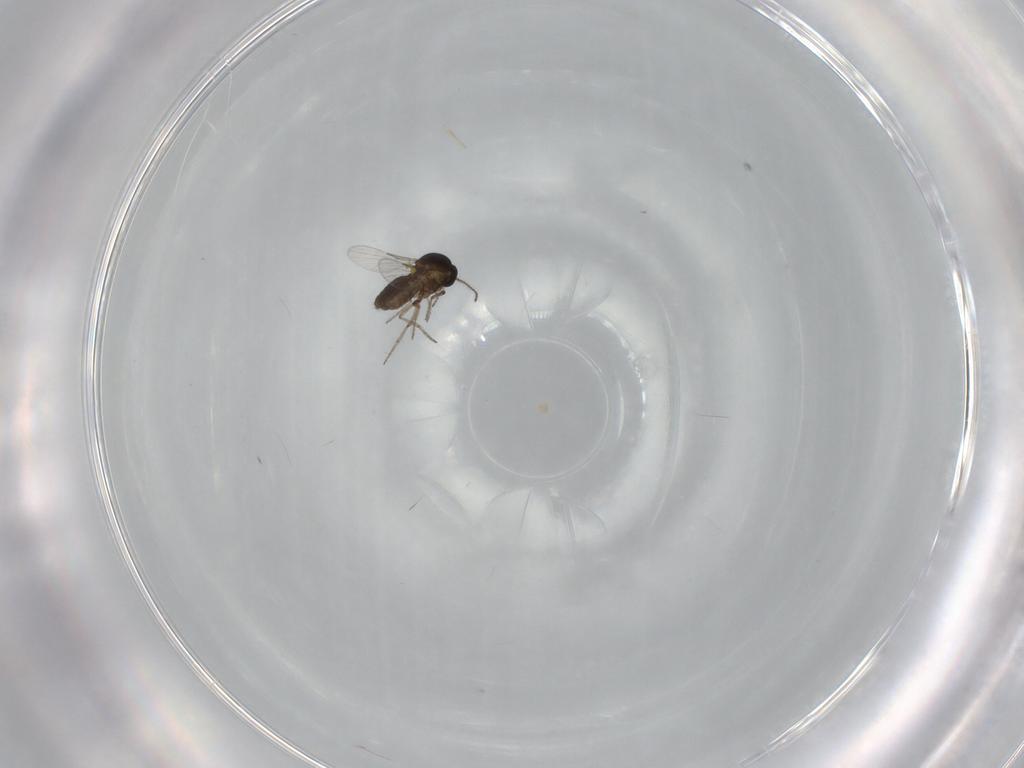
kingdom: Animalia
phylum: Arthropoda
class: Insecta
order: Diptera
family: Ceratopogonidae
